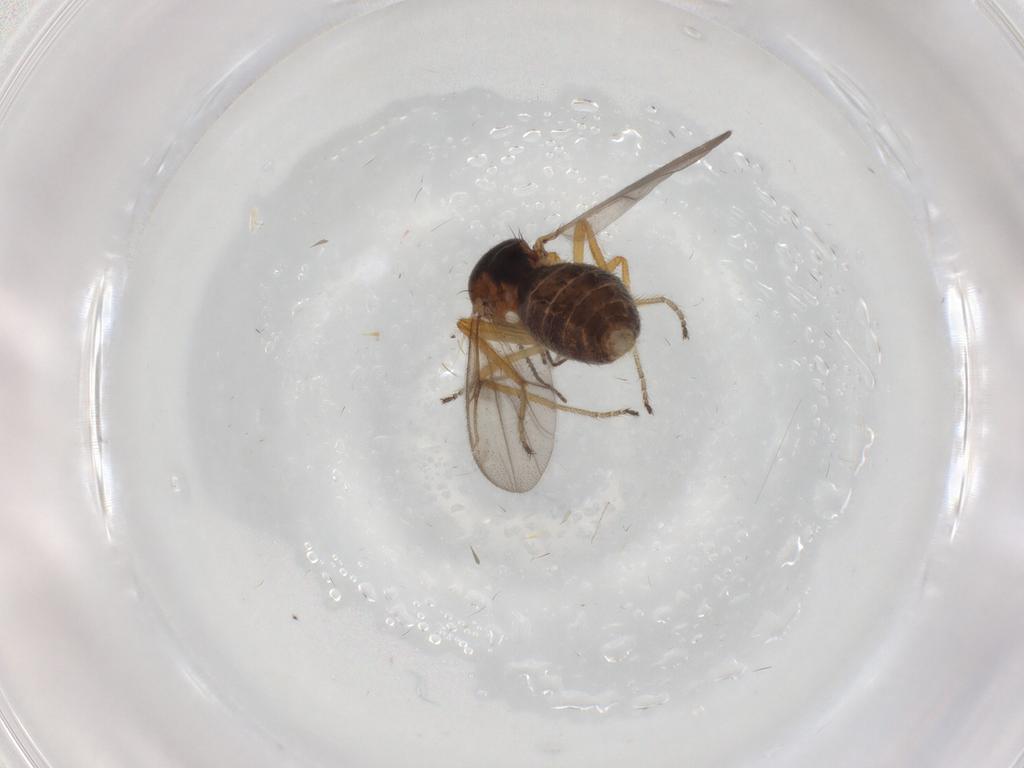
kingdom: Animalia
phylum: Arthropoda
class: Insecta
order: Diptera
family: Ceratopogonidae
